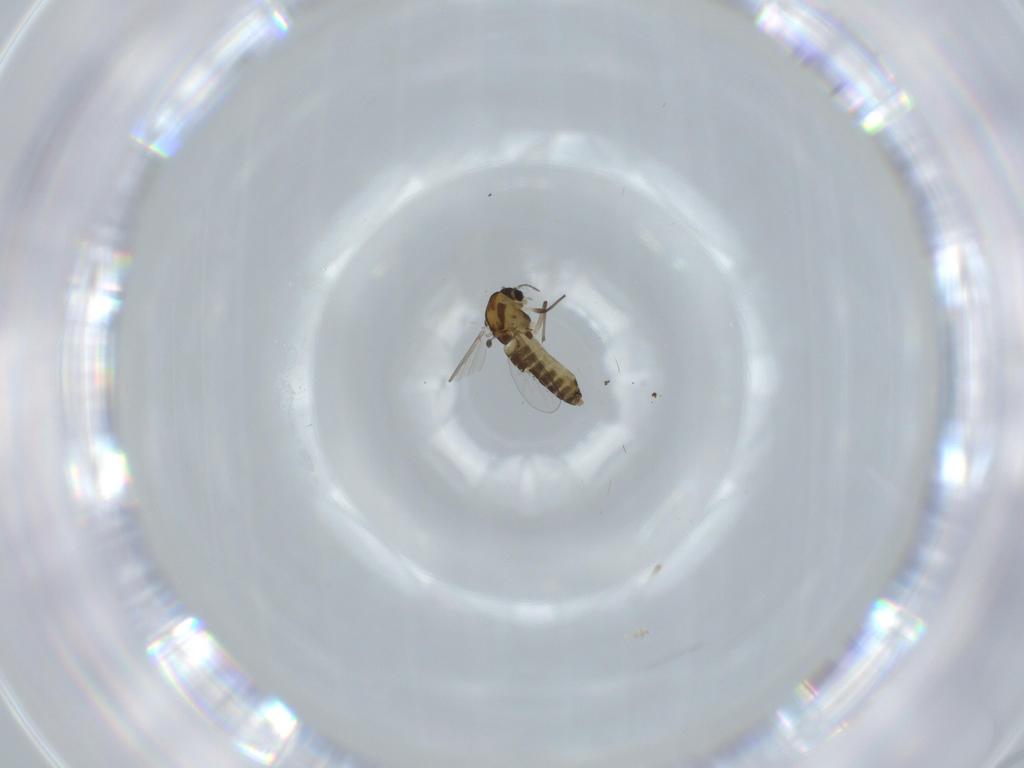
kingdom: Animalia
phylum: Arthropoda
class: Insecta
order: Diptera
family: Chironomidae
